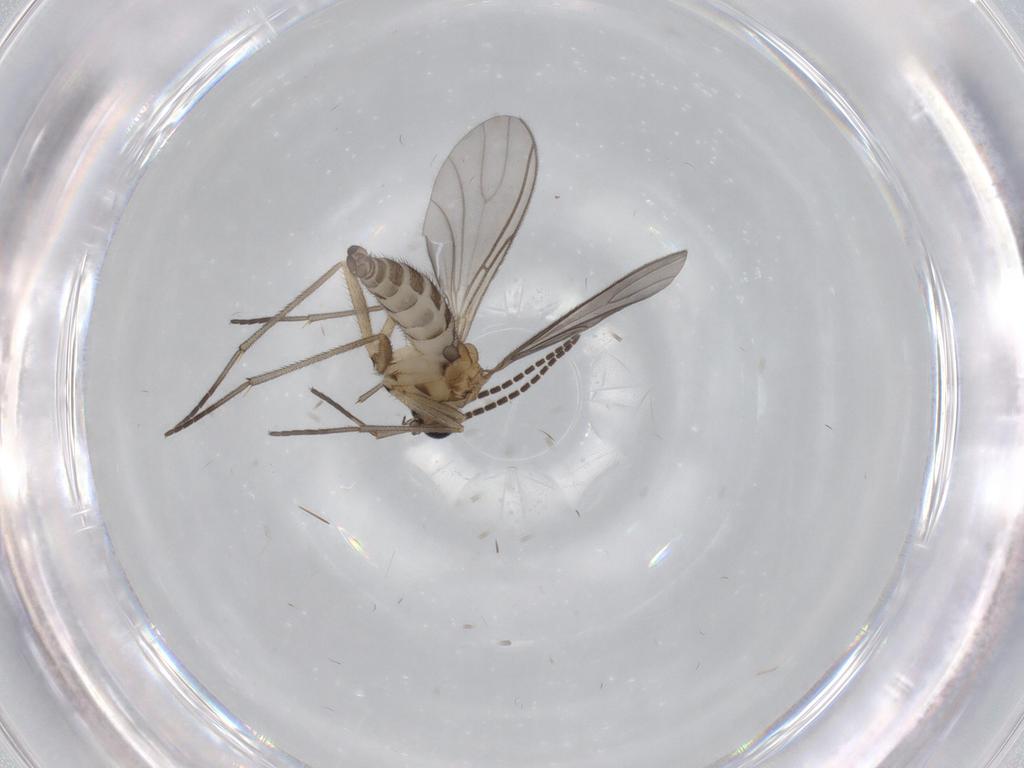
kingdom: Animalia
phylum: Arthropoda
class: Insecta
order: Diptera
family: Sciaridae
